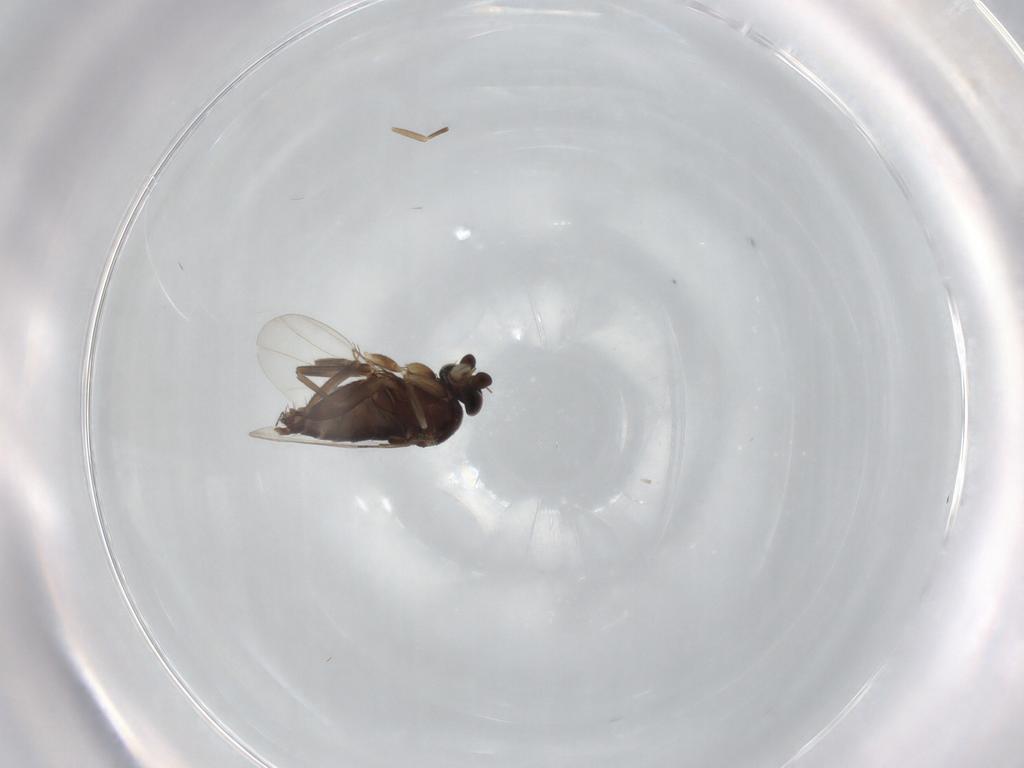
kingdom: Animalia
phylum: Arthropoda
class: Insecta
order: Diptera
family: Phoridae
